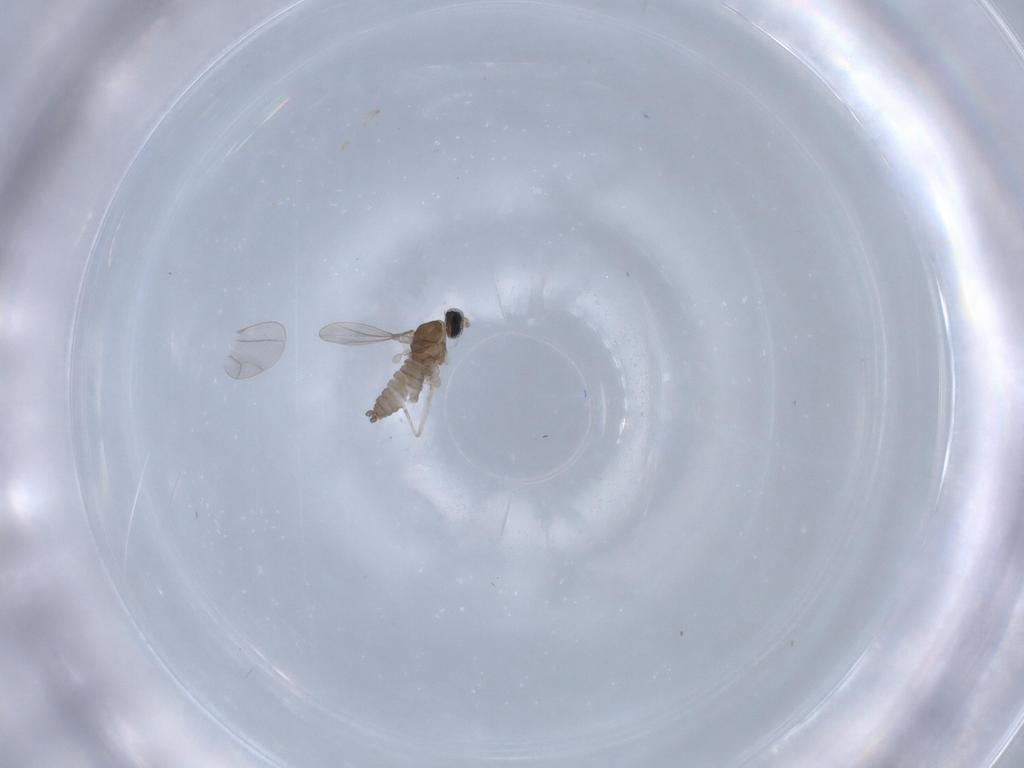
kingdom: Animalia
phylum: Arthropoda
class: Insecta
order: Diptera
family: Cecidomyiidae
